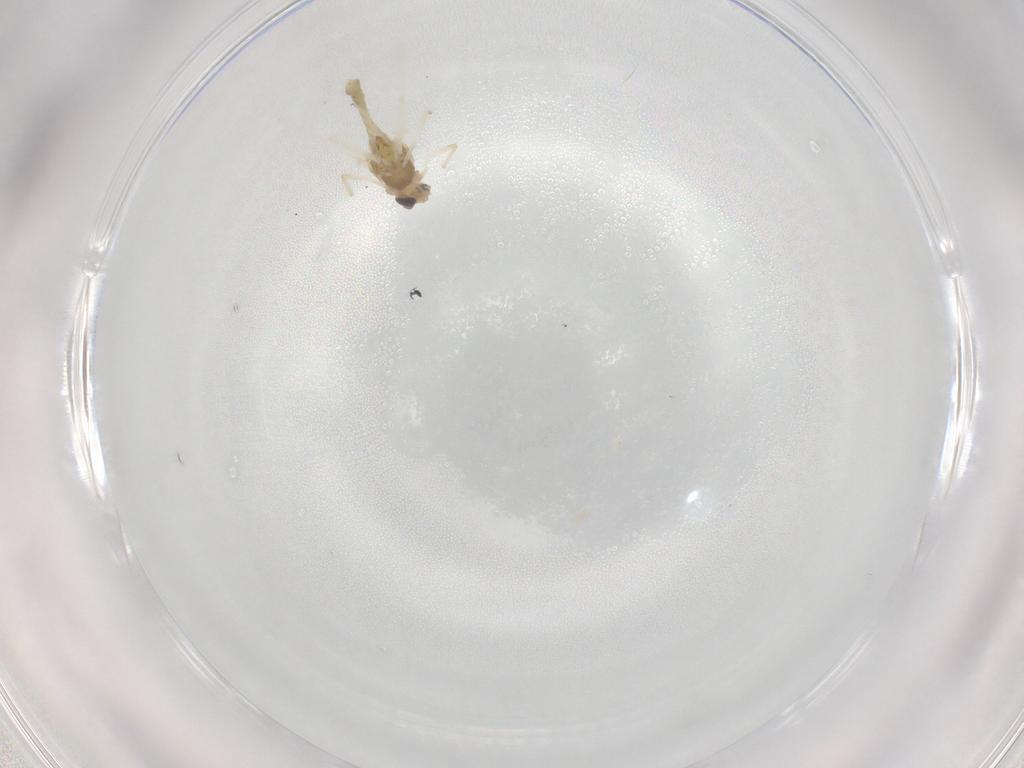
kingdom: Animalia
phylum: Arthropoda
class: Insecta
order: Diptera
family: Chironomidae
